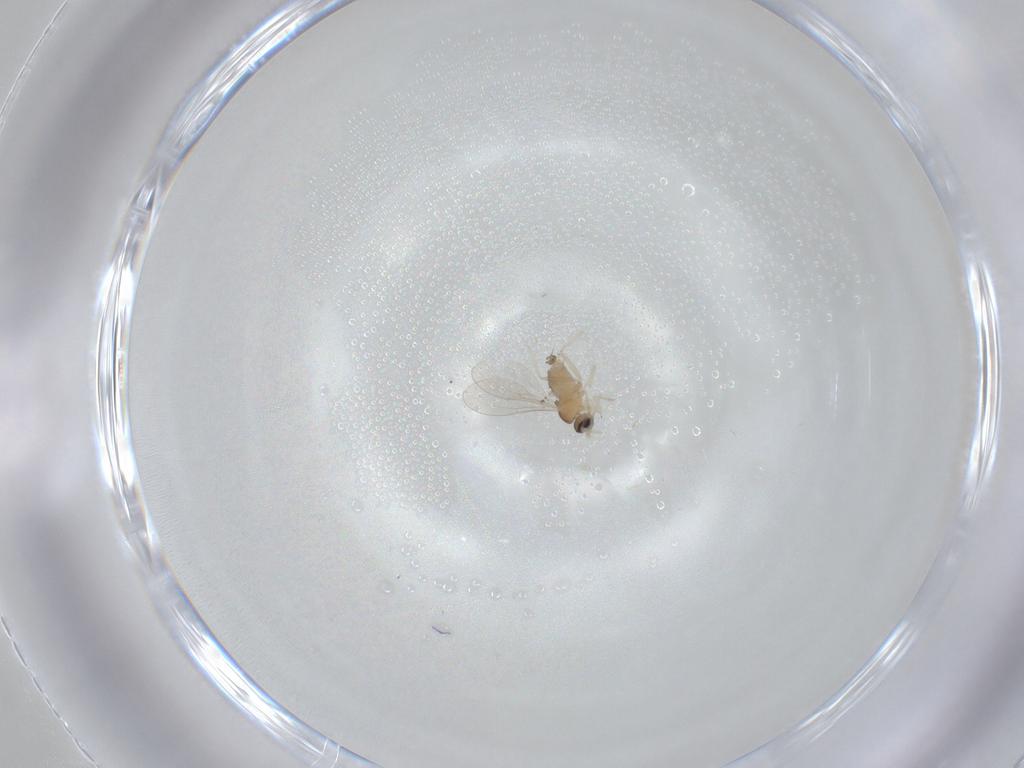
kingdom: Animalia
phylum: Arthropoda
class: Insecta
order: Diptera
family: Cecidomyiidae
